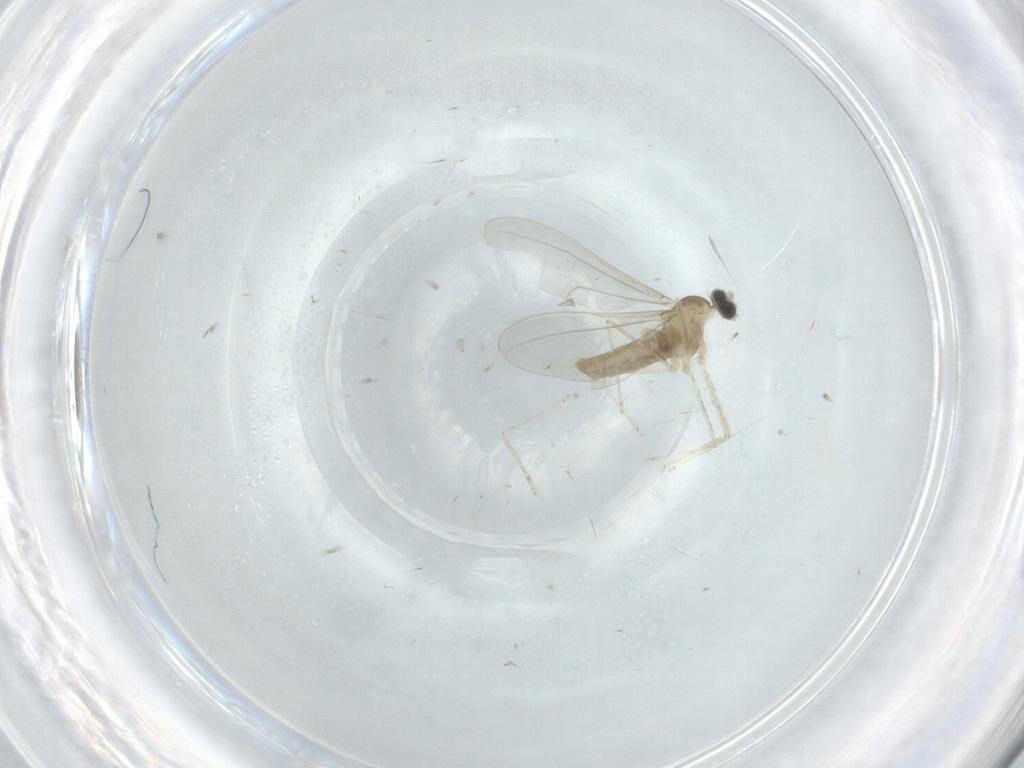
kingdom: Animalia
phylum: Arthropoda
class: Insecta
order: Diptera
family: Cecidomyiidae
